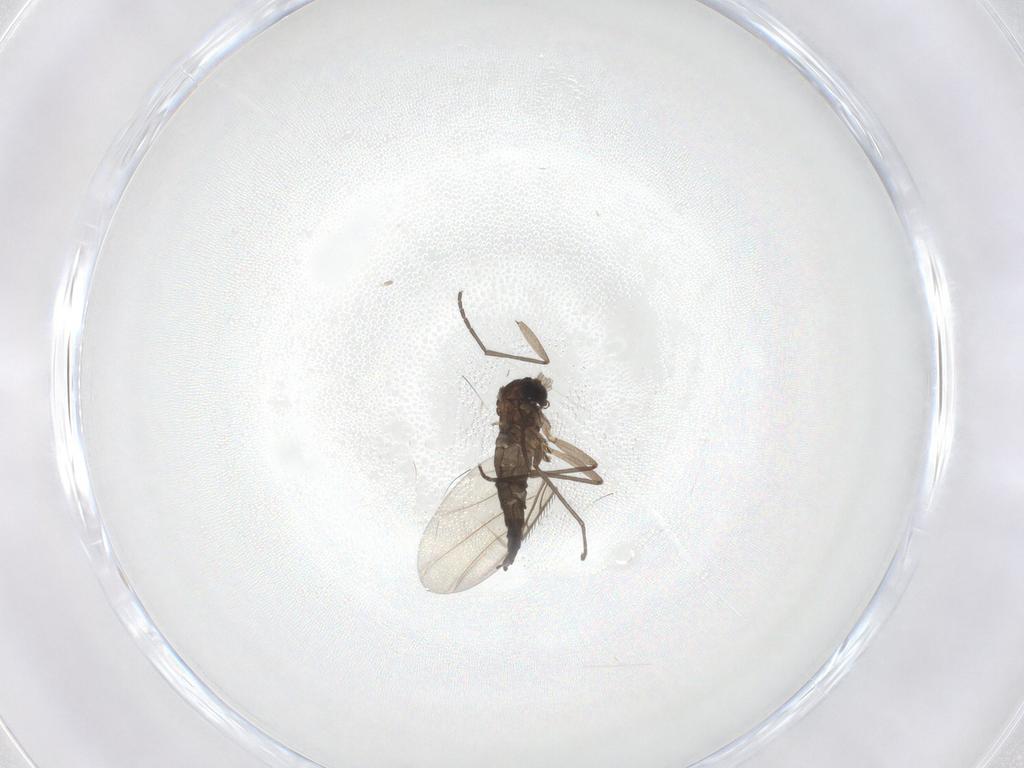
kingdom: Animalia
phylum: Arthropoda
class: Insecta
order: Diptera
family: Sciaridae
